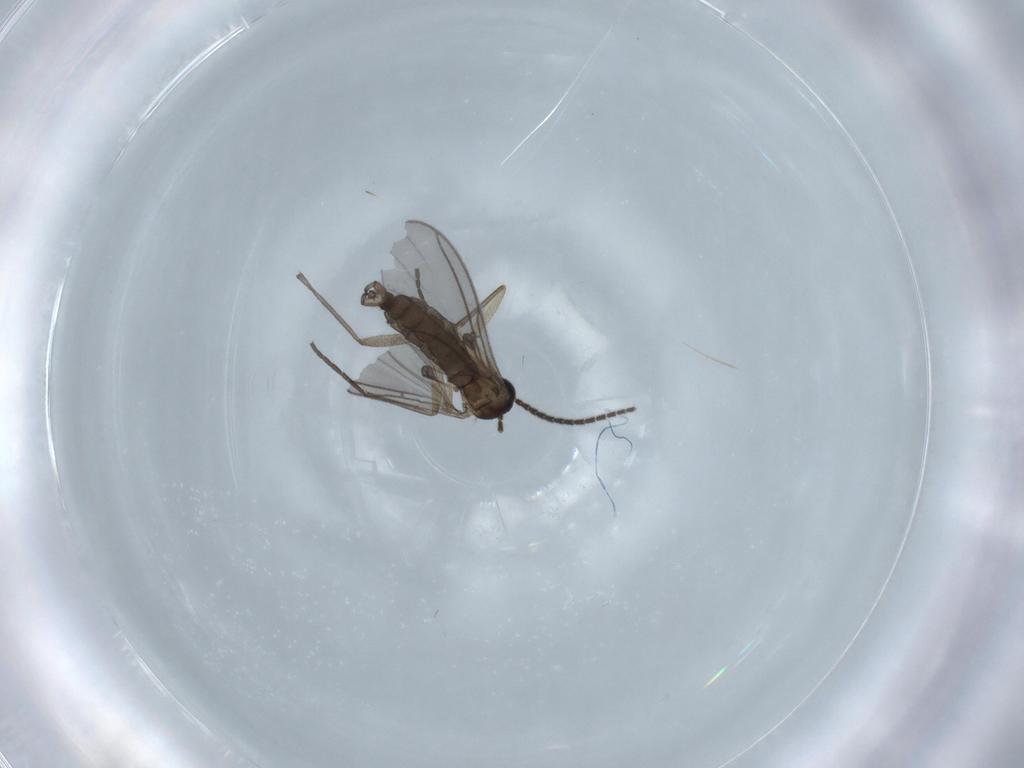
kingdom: Animalia
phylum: Arthropoda
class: Insecta
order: Diptera
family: Sciaridae
